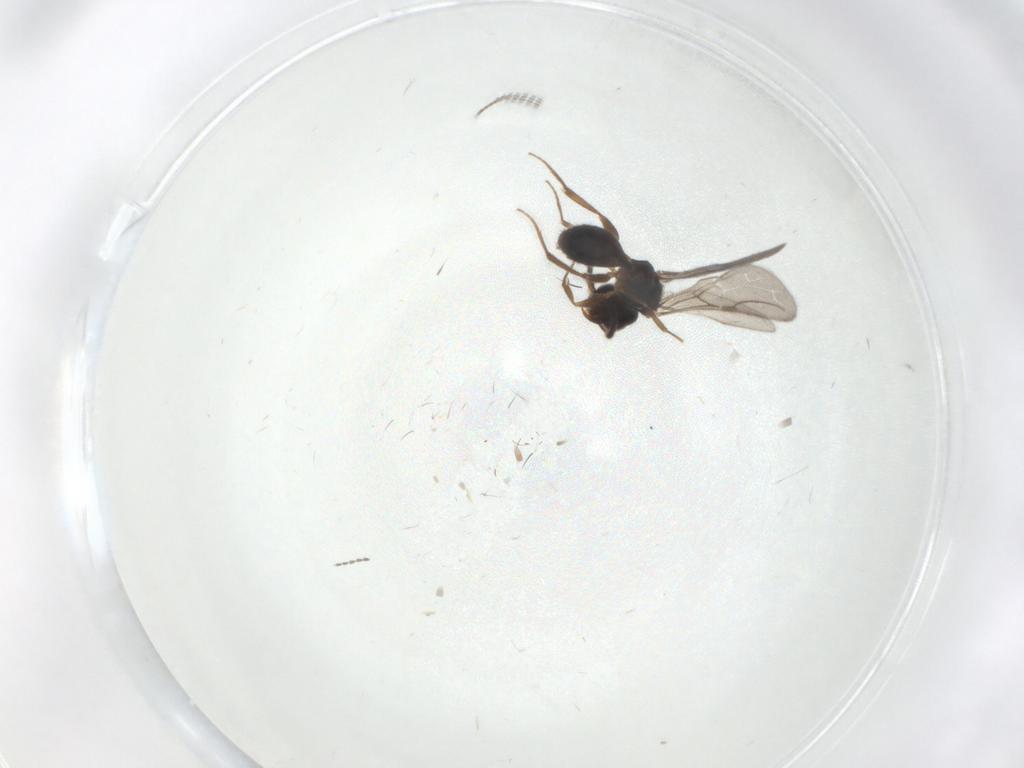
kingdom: Animalia
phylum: Arthropoda
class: Insecta
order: Hymenoptera
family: Bethylidae
